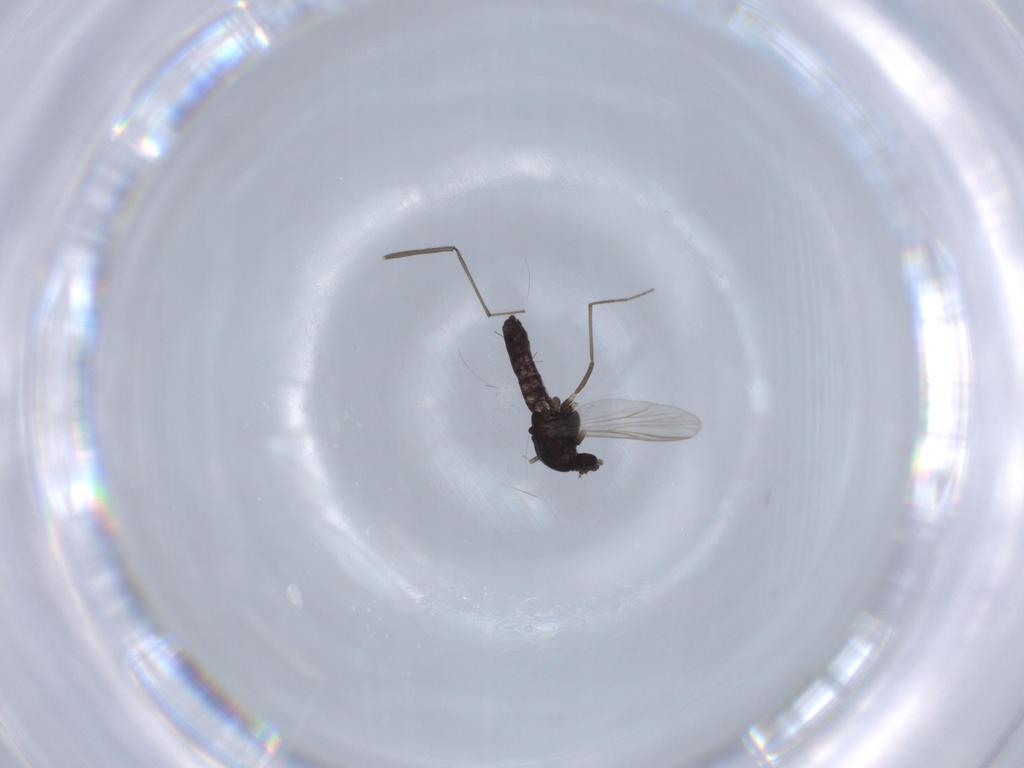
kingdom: Animalia
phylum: Arthropoda
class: Insecta
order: Diptera
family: Chironomidae
